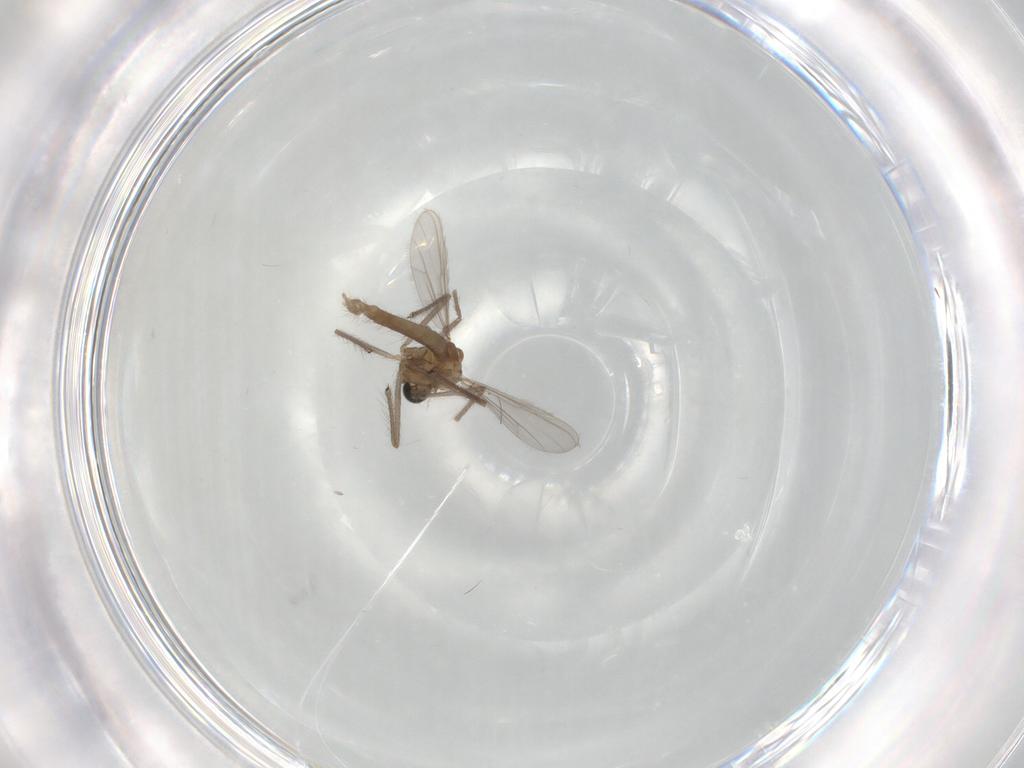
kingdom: Animalia
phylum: Arthropoda
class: Insecta
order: Diptera
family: Chironomidae
